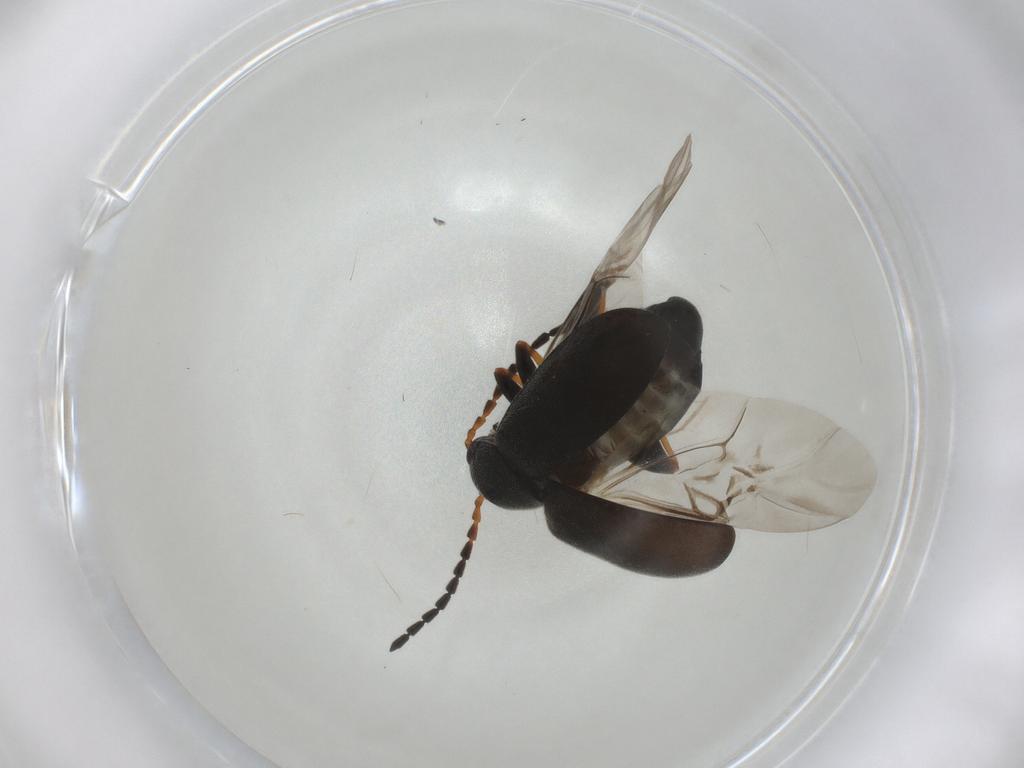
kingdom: Animalia
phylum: Arthropoda
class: Insecta
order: Coleoptera
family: Chrysomelidae
